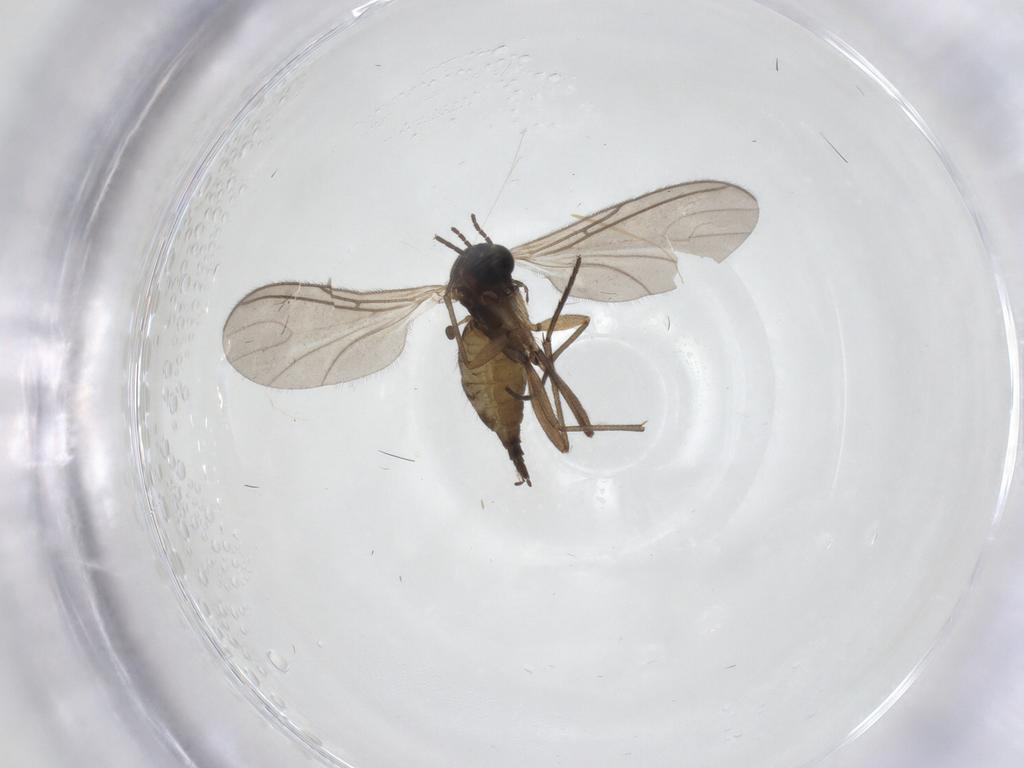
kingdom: Animalia
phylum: Arthropoda
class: Insecta
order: Diptera
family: Sciaridae
